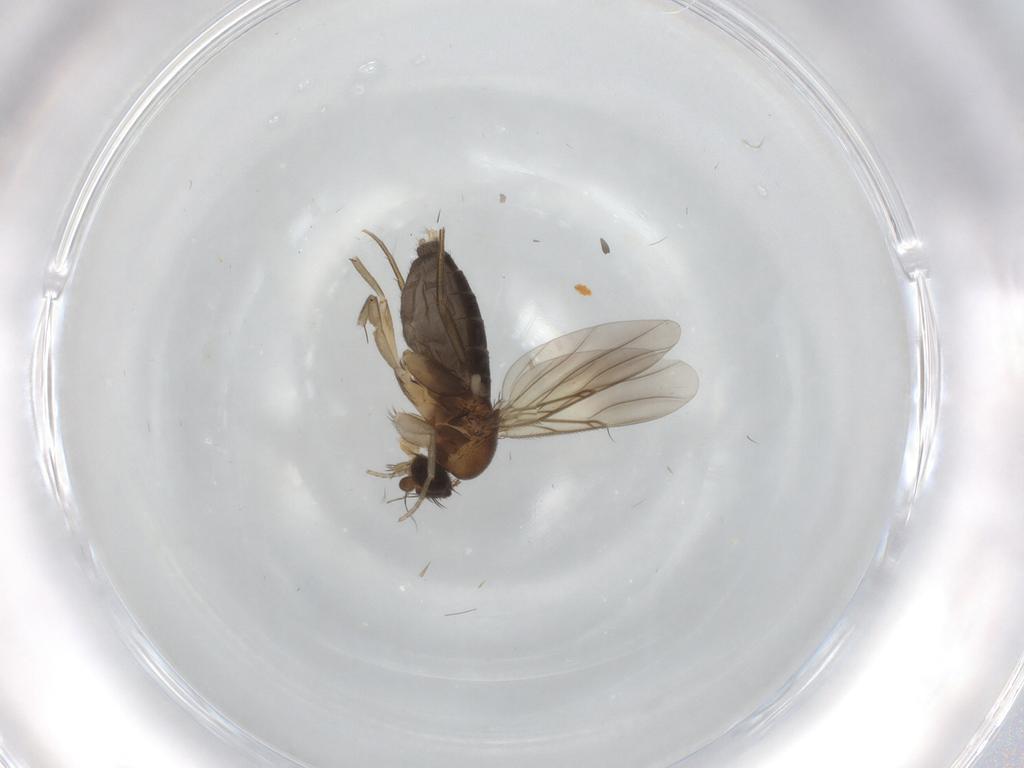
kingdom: Animalia
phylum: Arthropoda
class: Insecta
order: Diptera
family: Phoridae
